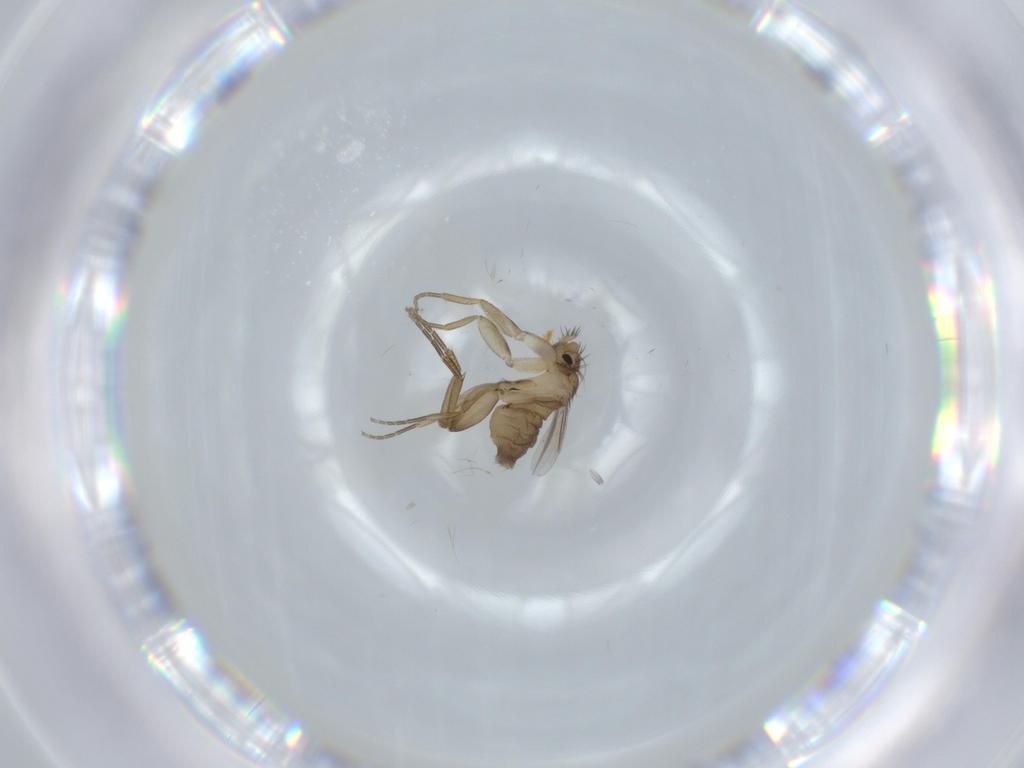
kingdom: Animalia
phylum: Arthropoda
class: Insecta
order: Diptera
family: Phoridae
